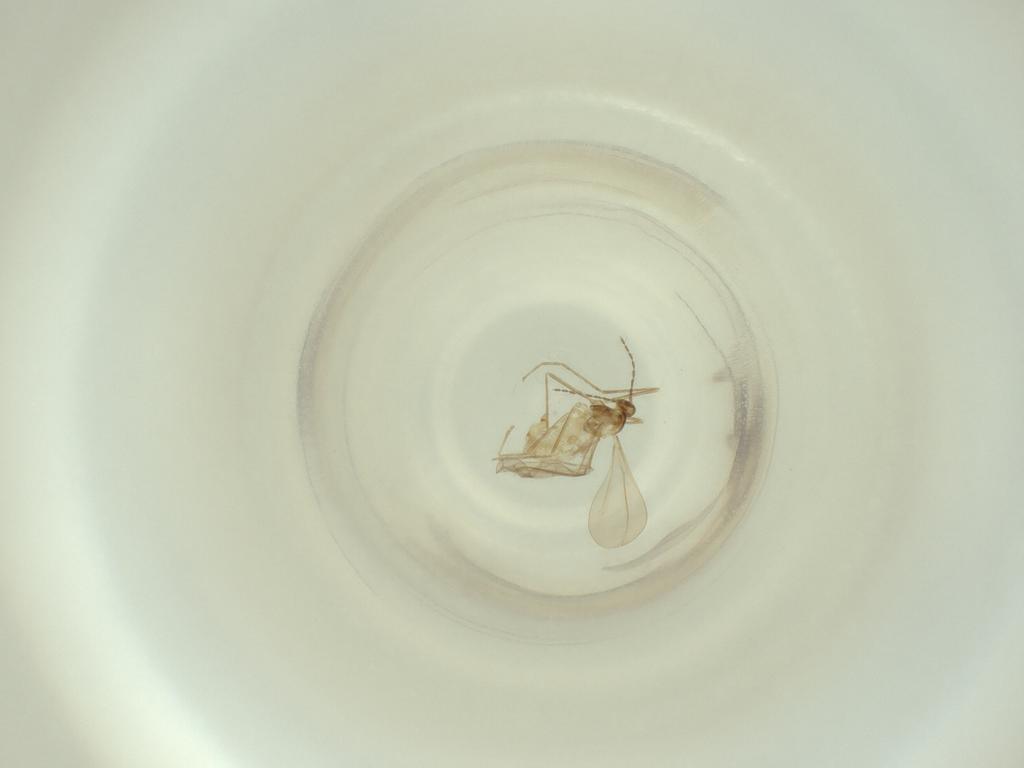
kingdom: Animalia
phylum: Arthropoda
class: Insecta
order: Diptera
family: Cecidomyiidae
